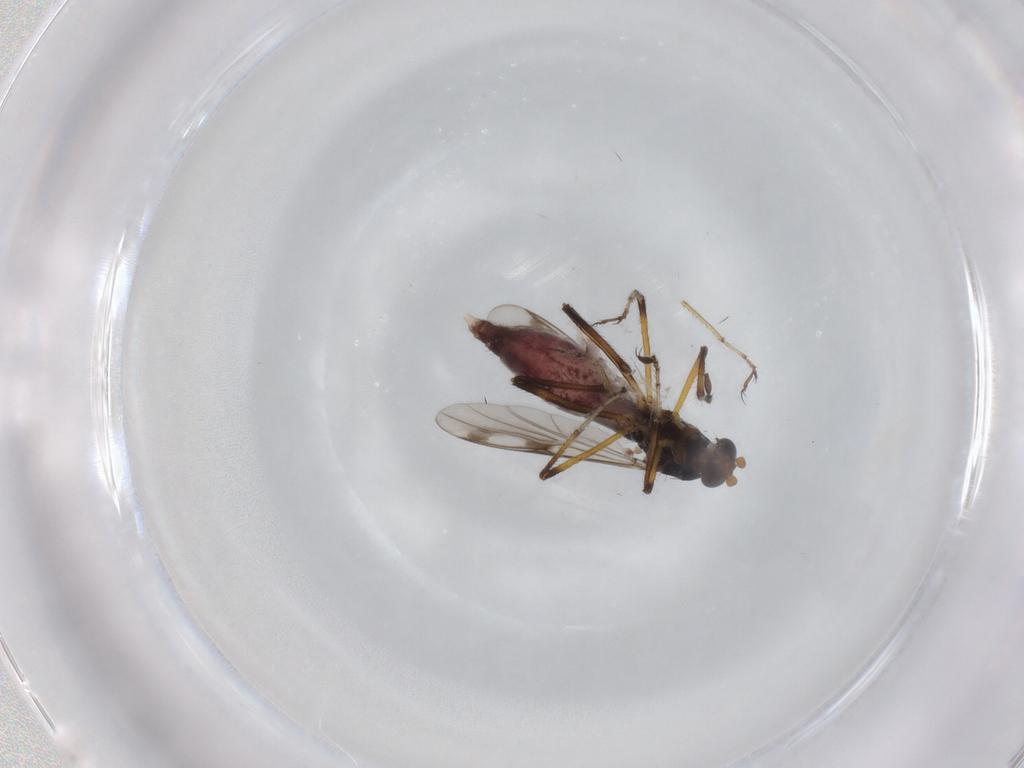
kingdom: Animalia
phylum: Arthropoda
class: Insecta
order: Diptera
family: Ceratopogonidae
